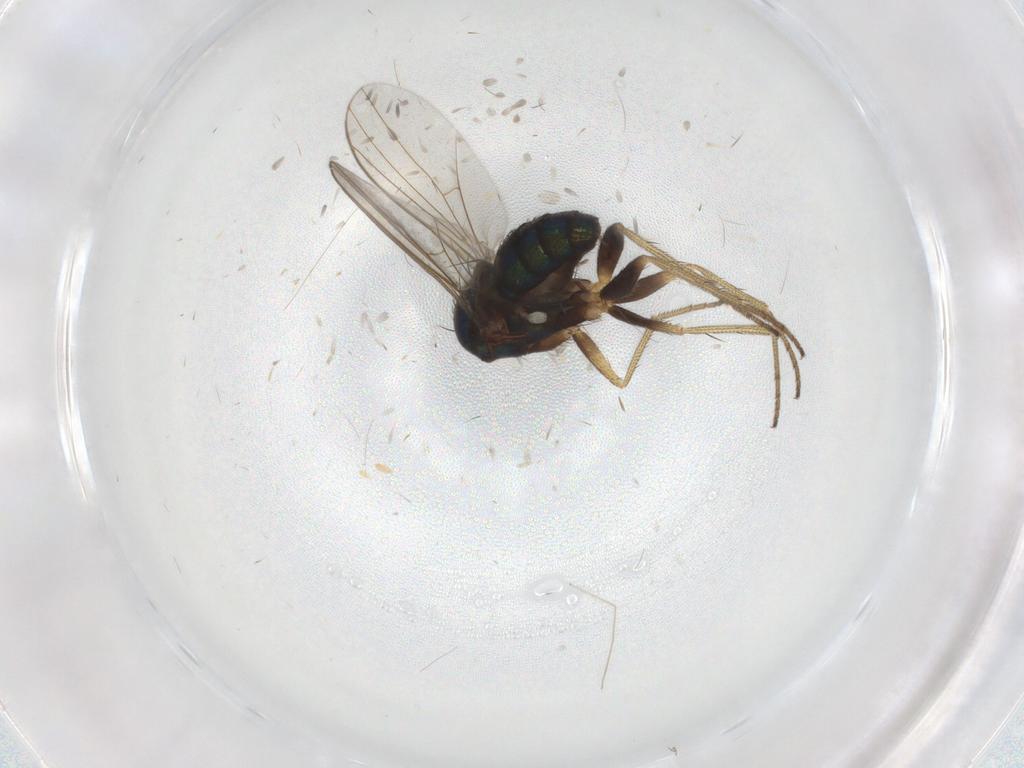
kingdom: Animalia
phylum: Arthropoda
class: Insecta
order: Diptera
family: Dolichopodidae
